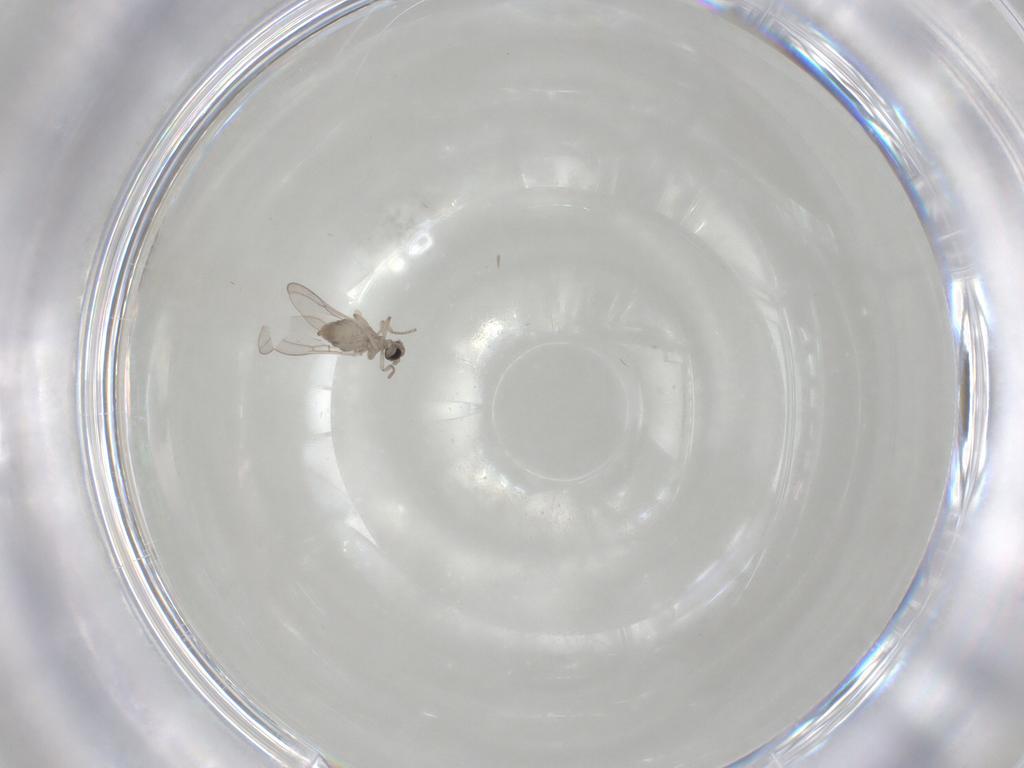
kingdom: Animalia
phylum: Arthropoda
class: Insecta
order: Diptera
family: Cecidomyiidae
